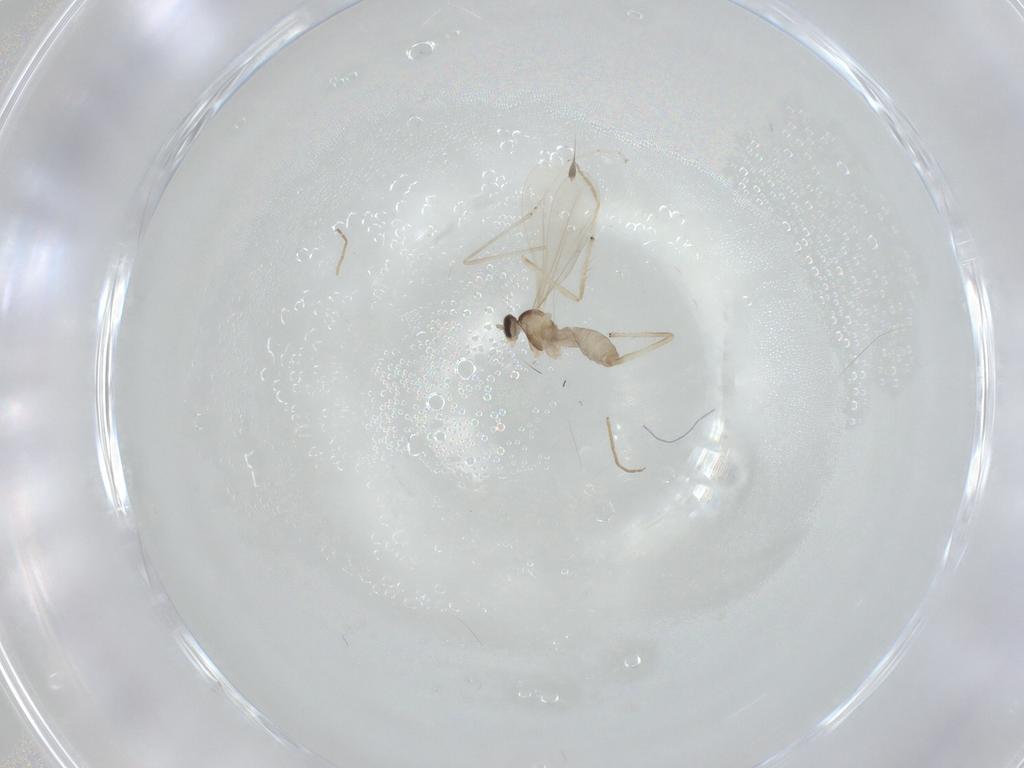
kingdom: Animalia
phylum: Arthropoda
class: Insecta
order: Diptera
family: Cecidomyiidae
